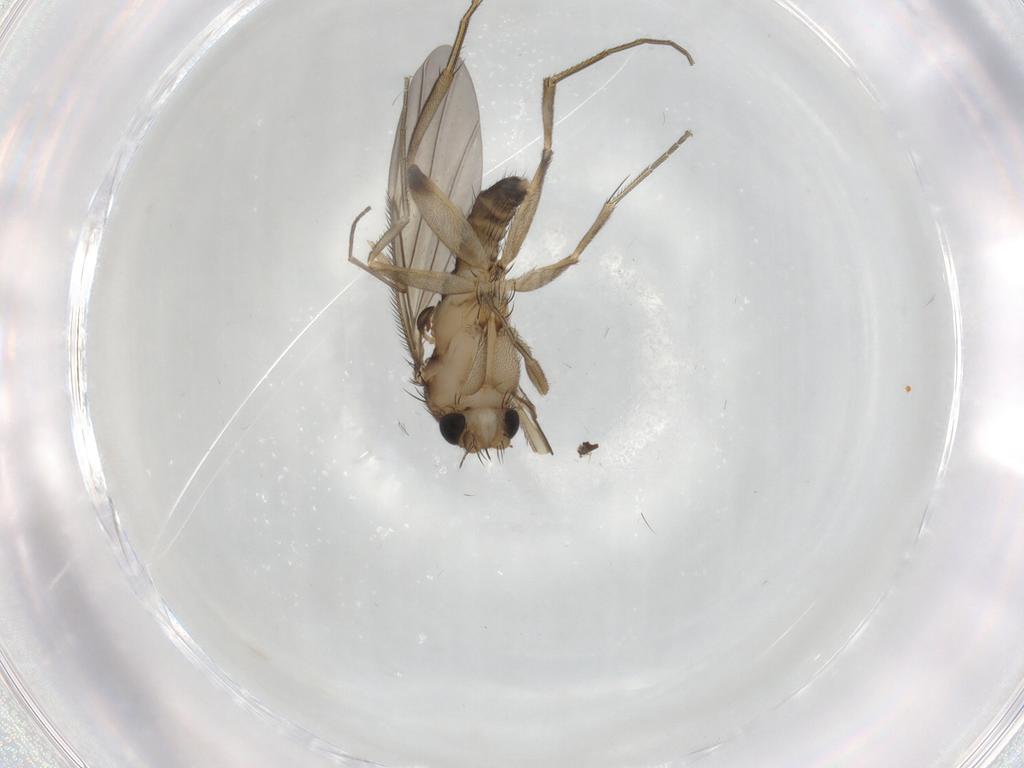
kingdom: Animalia
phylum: Arthropoda
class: Insecta
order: Diptera
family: Phoridae
